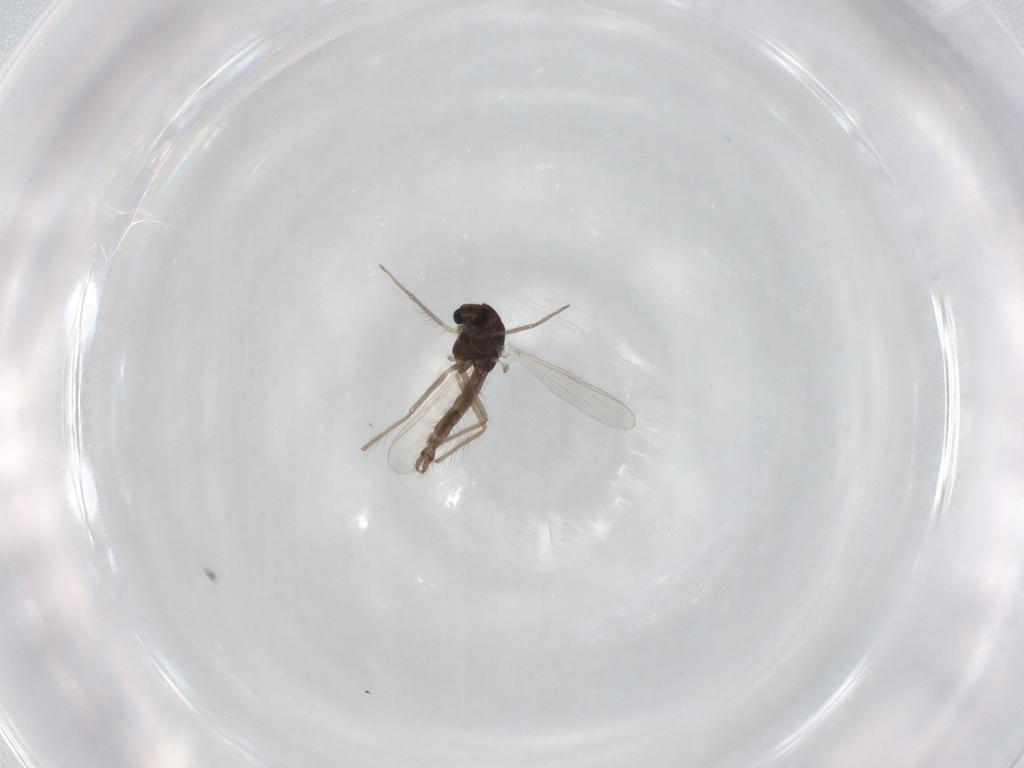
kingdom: Animalia
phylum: Arthropoda
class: Insecta
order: Diptera
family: Chironomidae
